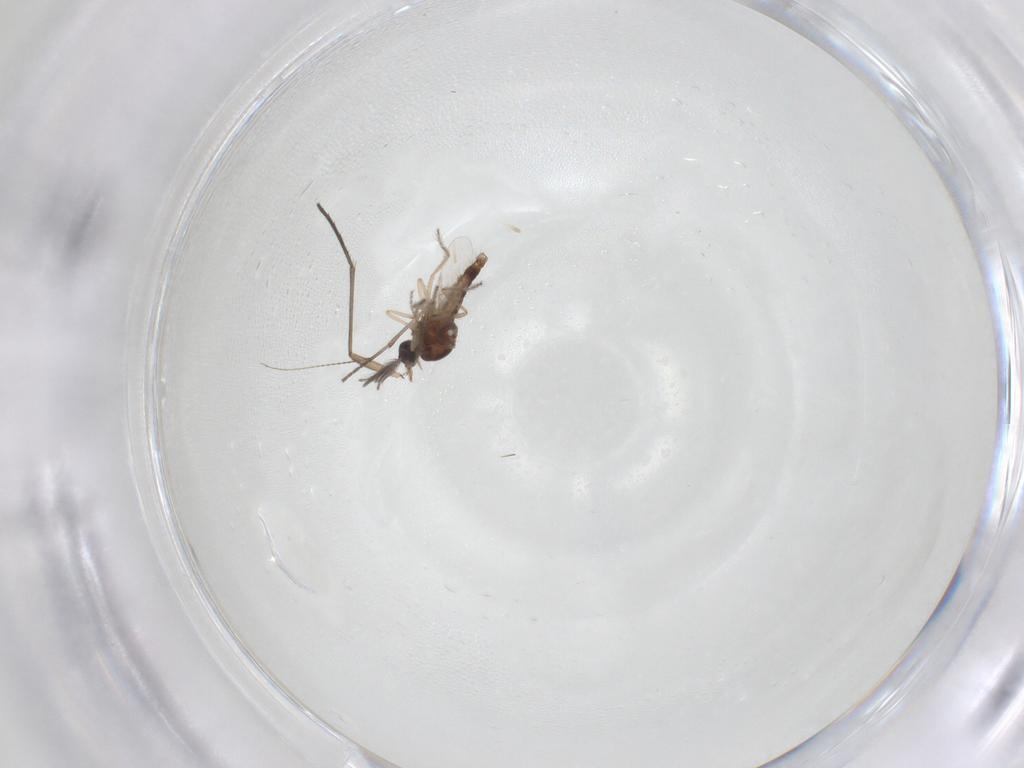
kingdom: Animalia
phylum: Arthropoda
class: Insecta
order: Diptera
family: Ceratopogonidae
